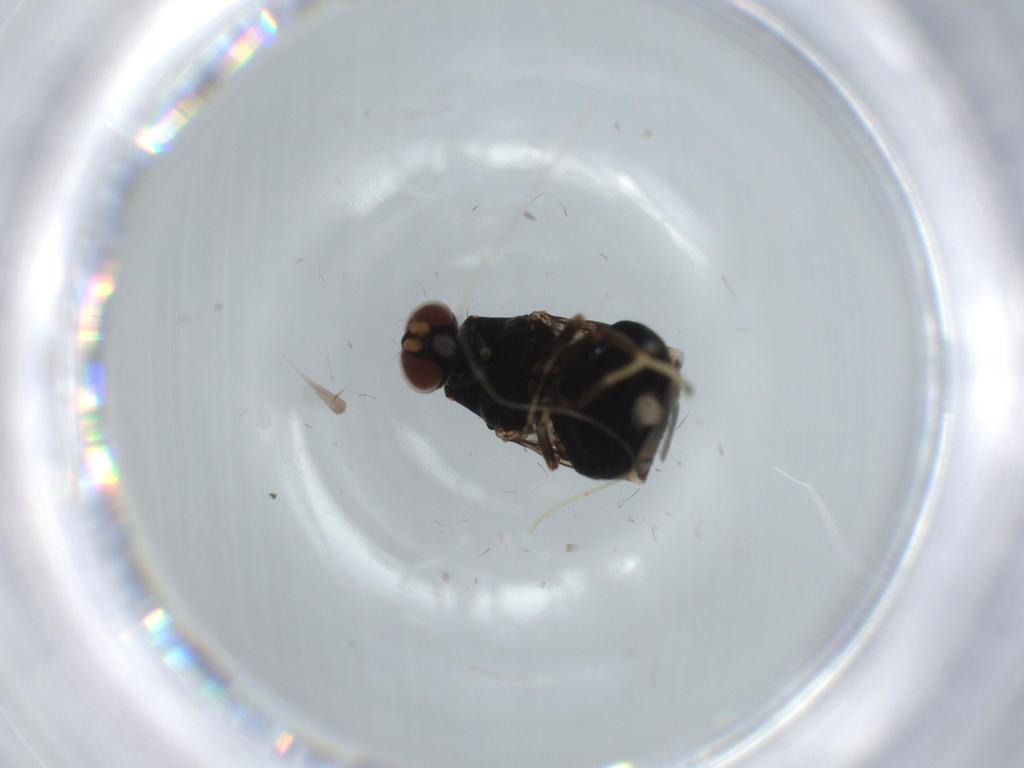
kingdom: Animalia
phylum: Arthropoda
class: Insecta
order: Diptera
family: Stratiomyidae
